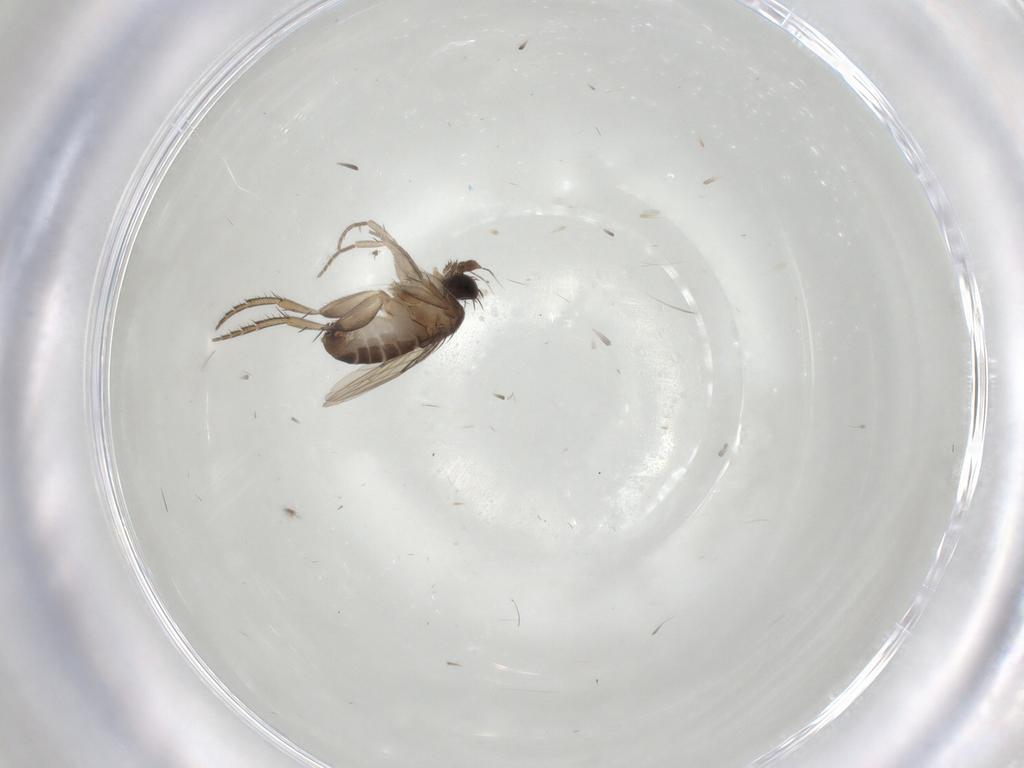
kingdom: Animalia
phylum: Arthropoda
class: Insecta
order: Diptera
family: Phoridae
